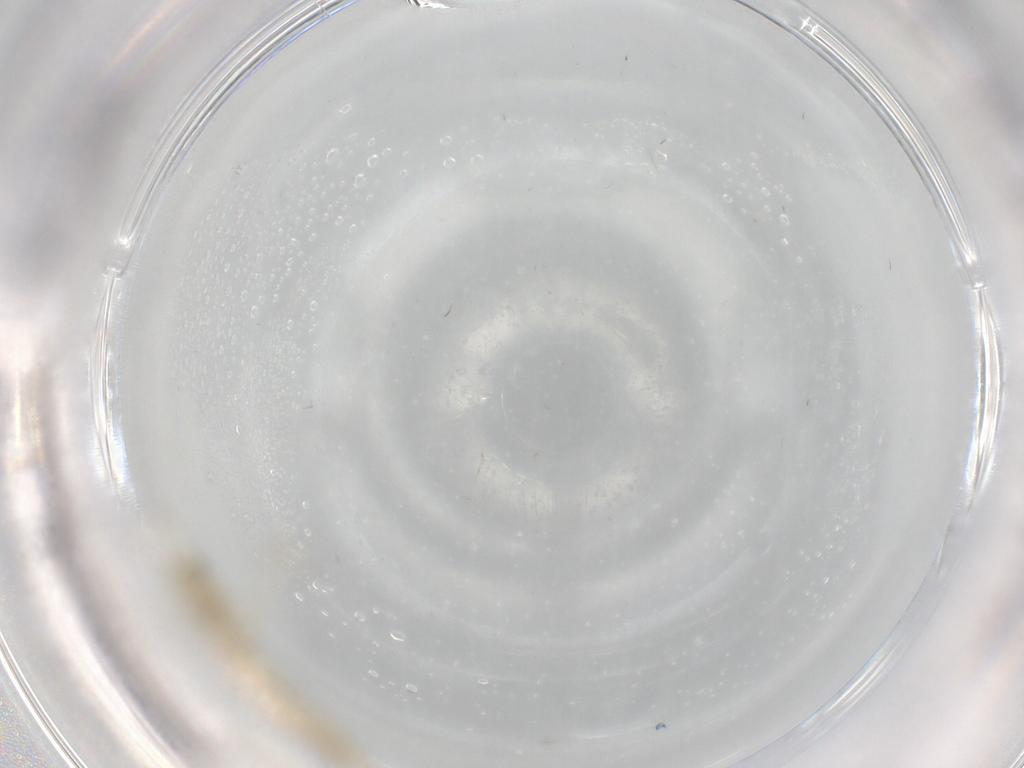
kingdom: Animalia
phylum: Arthropoda
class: Insecta
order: Diptera
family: Chironomidae
